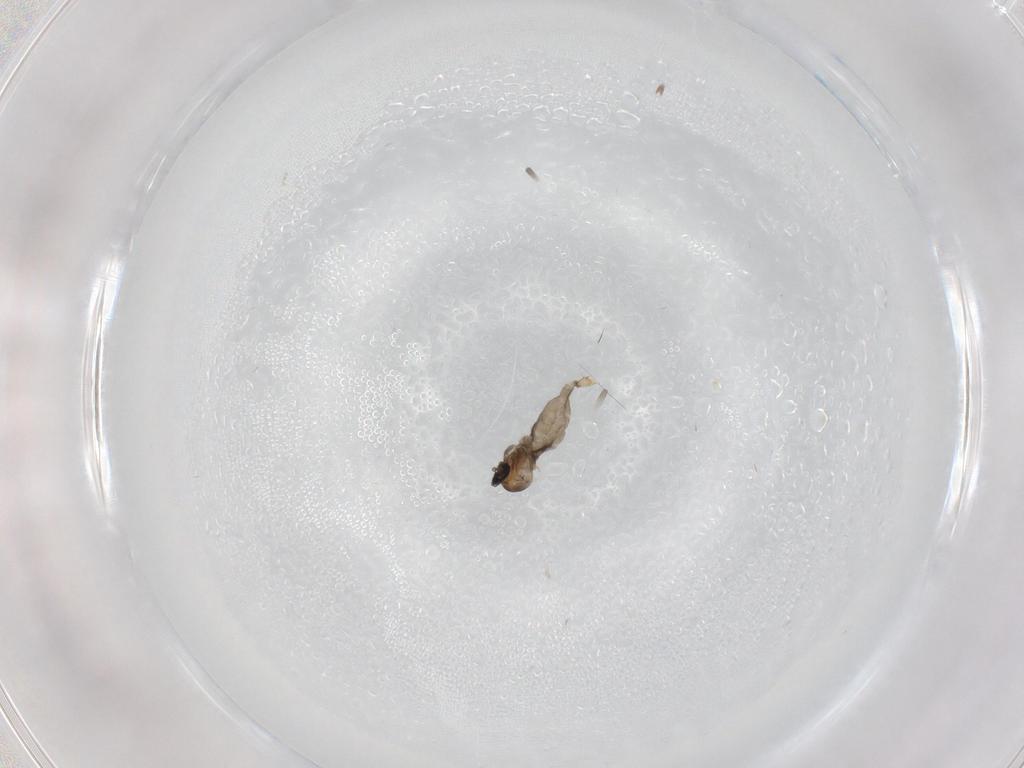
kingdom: Animalia
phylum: Arthropoda
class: Insecta
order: Diptera
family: Cecidomyiidae
